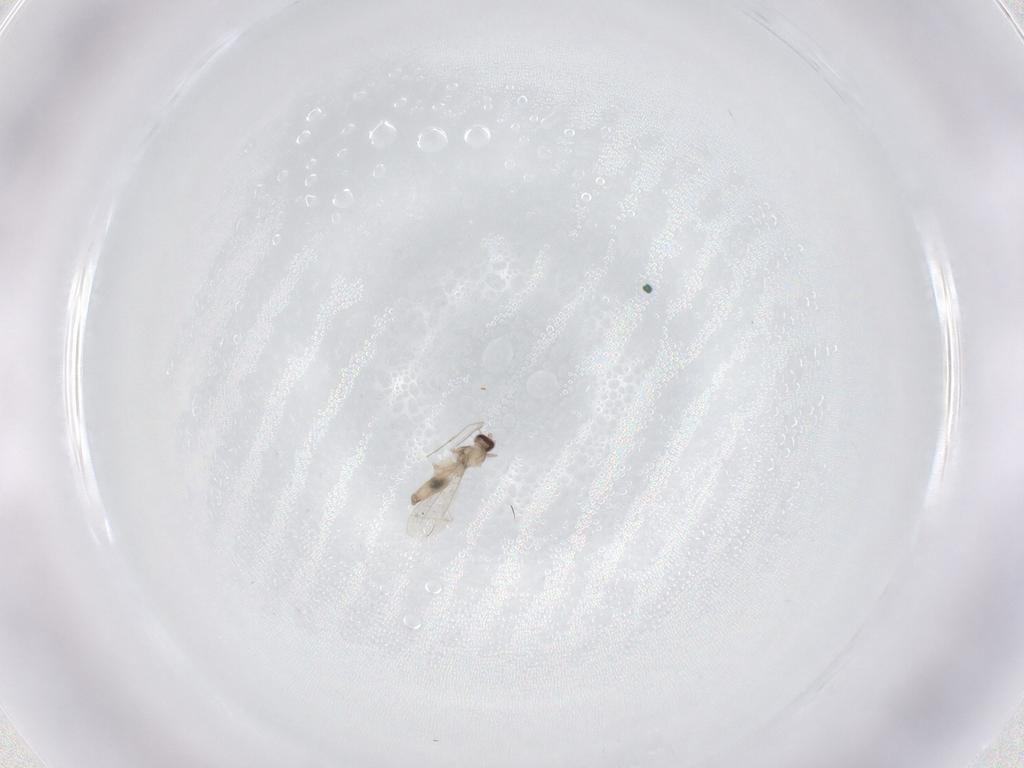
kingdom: Animalia
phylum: Arthropoda
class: Insecta
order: Diptera
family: Cecidomyiidae
